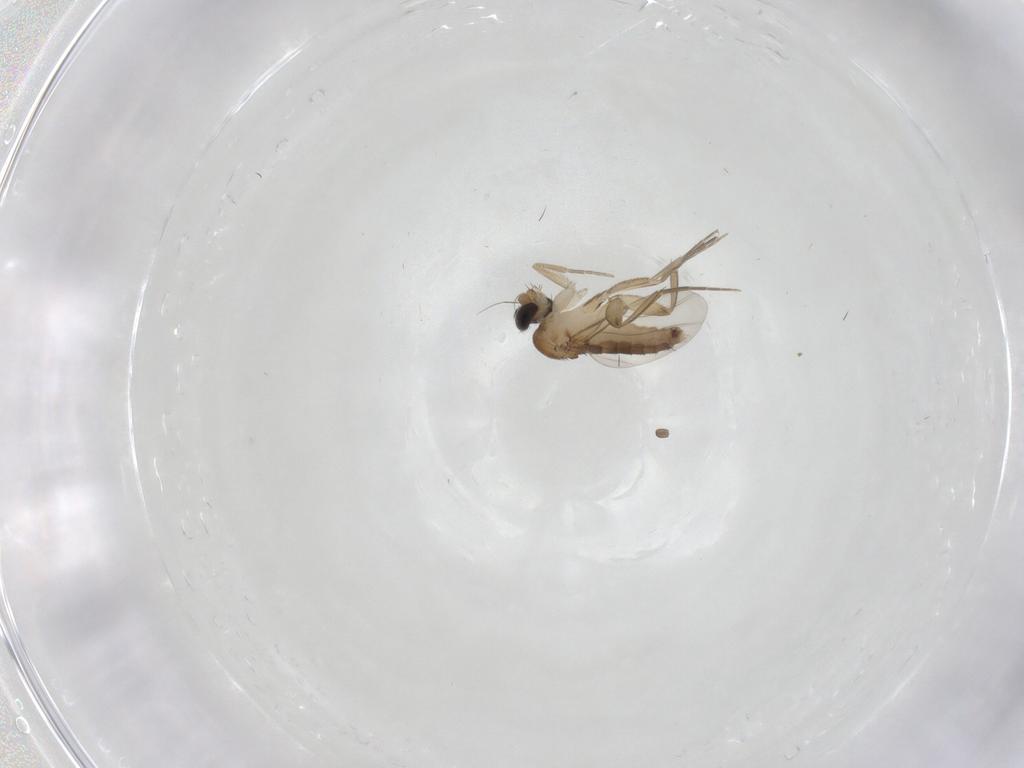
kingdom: Animalia
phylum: Arthropoda
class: Insecta
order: Diptera
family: Phoridae
